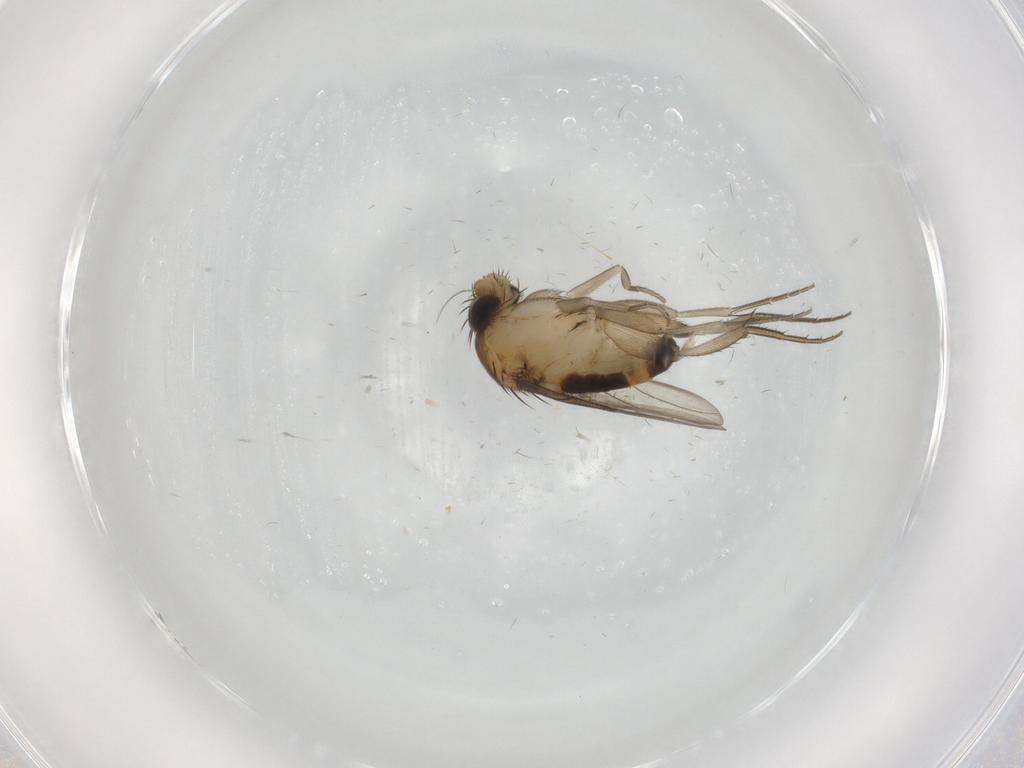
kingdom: Animalia
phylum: Arthropoda
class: Insecta
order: Diptera
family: Phoridae
